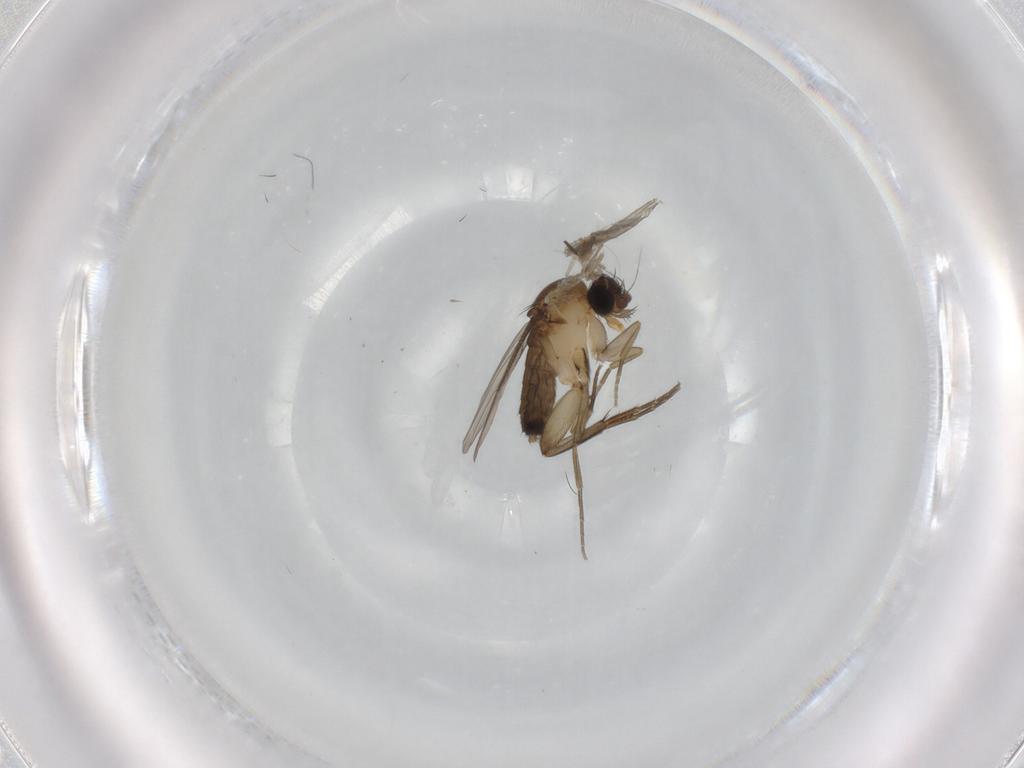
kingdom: Animalia
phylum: Arthropoda
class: Insecta
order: Diptera
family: Phoridae
